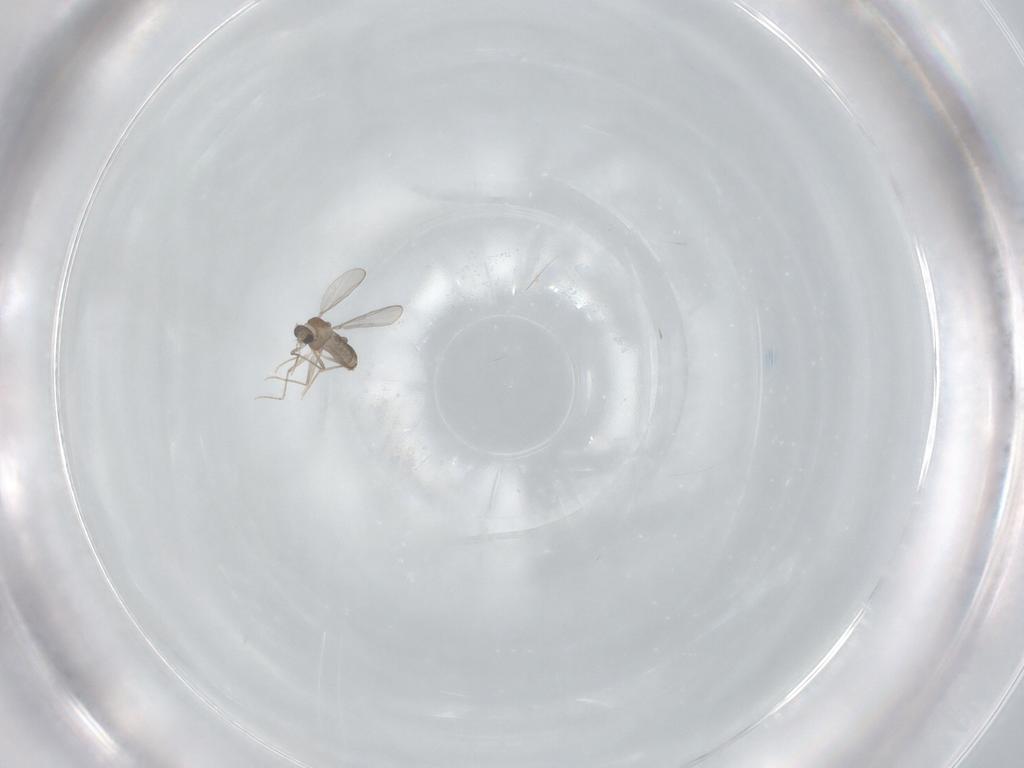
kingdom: Animalia
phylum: Arthropoda
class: Insecta
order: Diptera
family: Chironomidae
